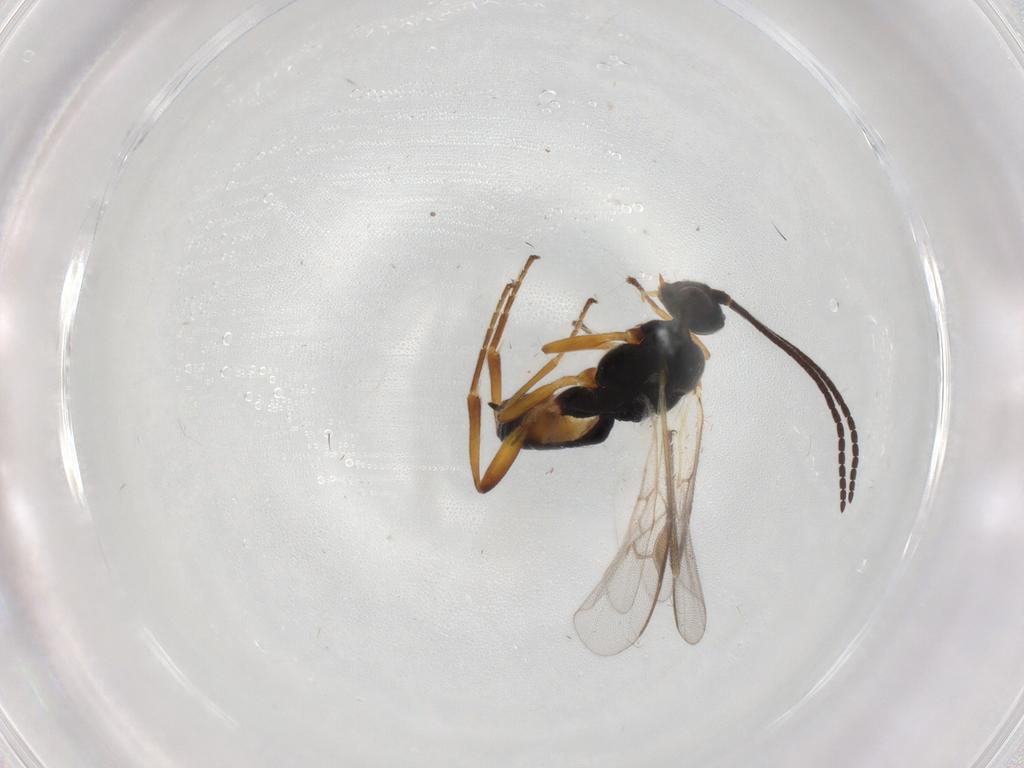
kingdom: Animalia
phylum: Arthropoda
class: Insecta
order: Hymenoptera
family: Braconidae
